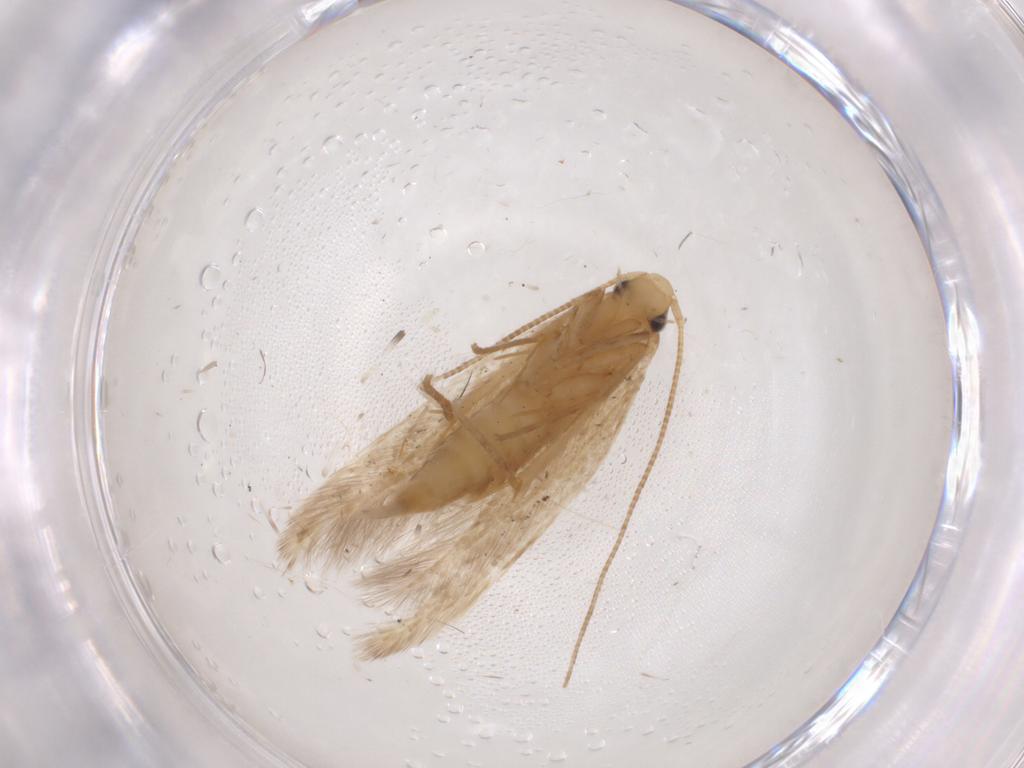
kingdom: Animalia
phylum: Arthropoda
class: Insecta
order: Lepidoptera
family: Tineidae
